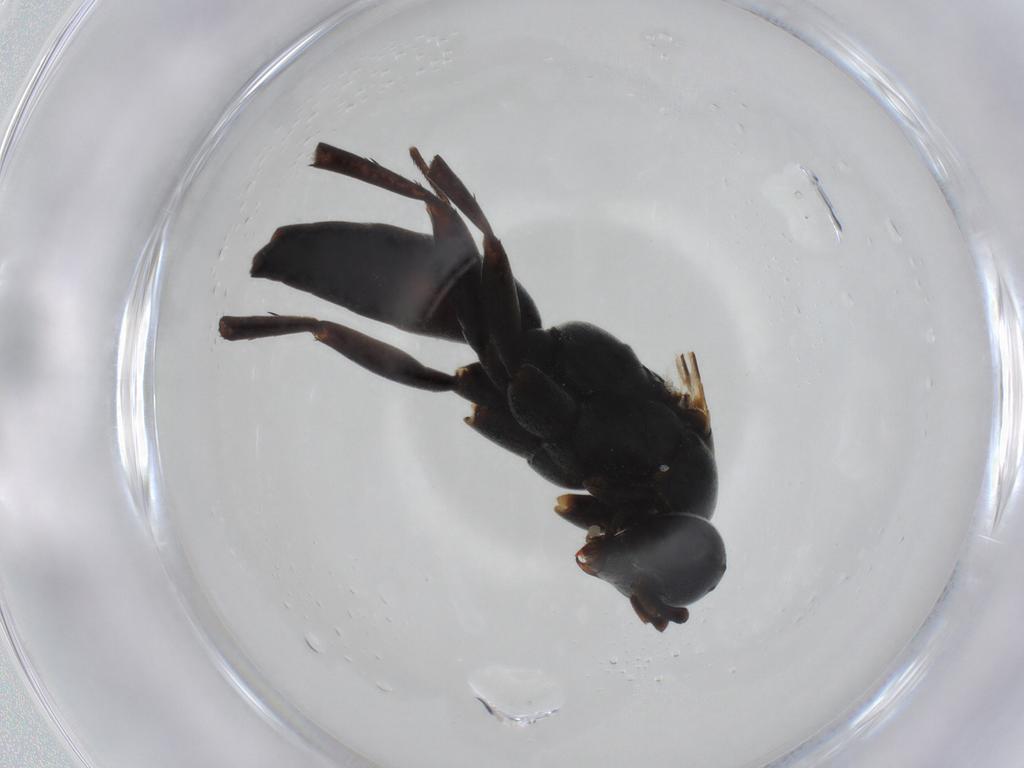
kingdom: Animalia
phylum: Arthropoda
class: Insecta
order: Hymenoptera
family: Pompilidae
